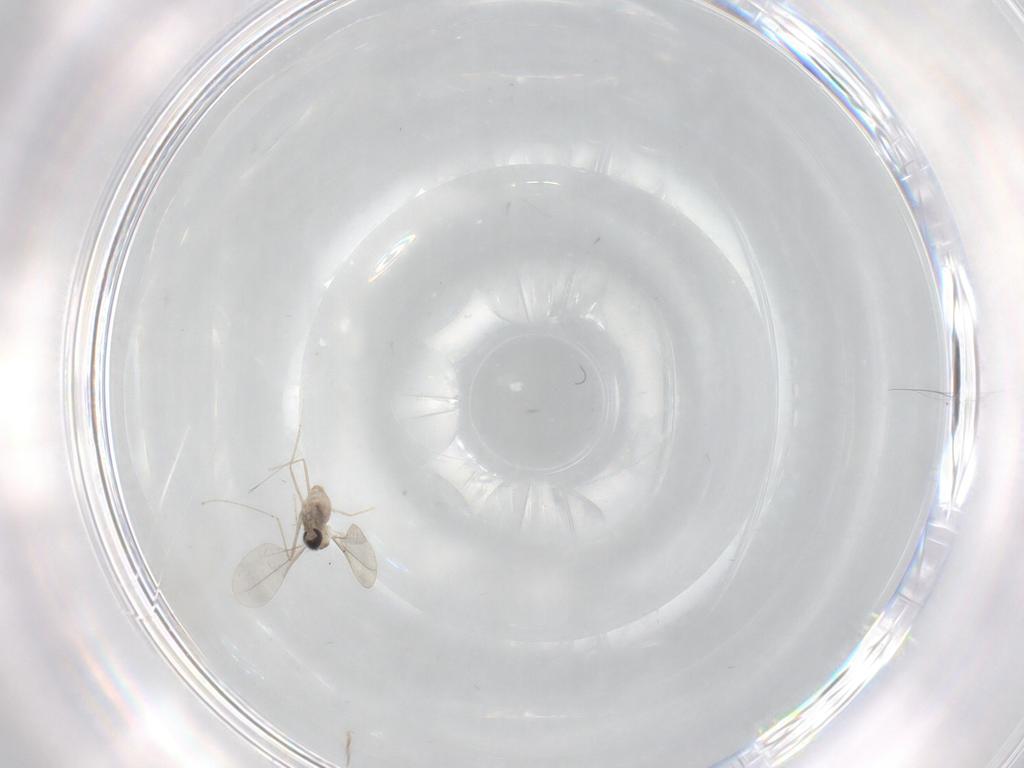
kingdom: Animalia
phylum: Arthropoda
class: Insecta
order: Diptera
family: Cecidomyiidae
